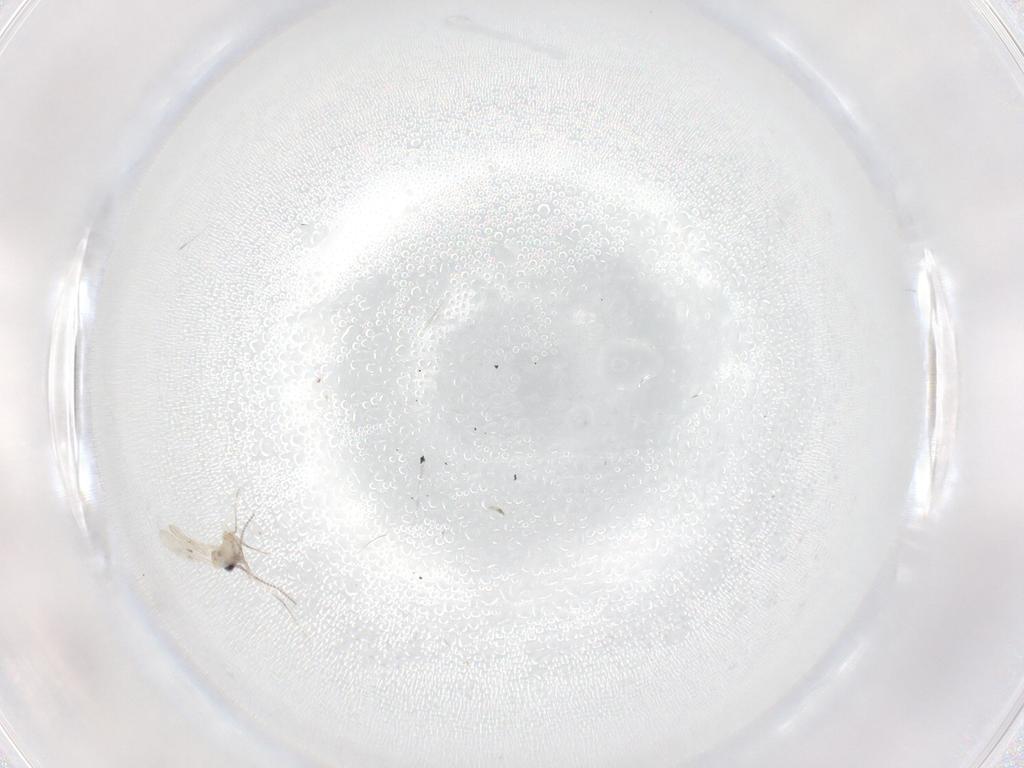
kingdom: Animalia
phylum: Arthropoda
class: Insecta
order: Diptera
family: Cecidomyiidae
